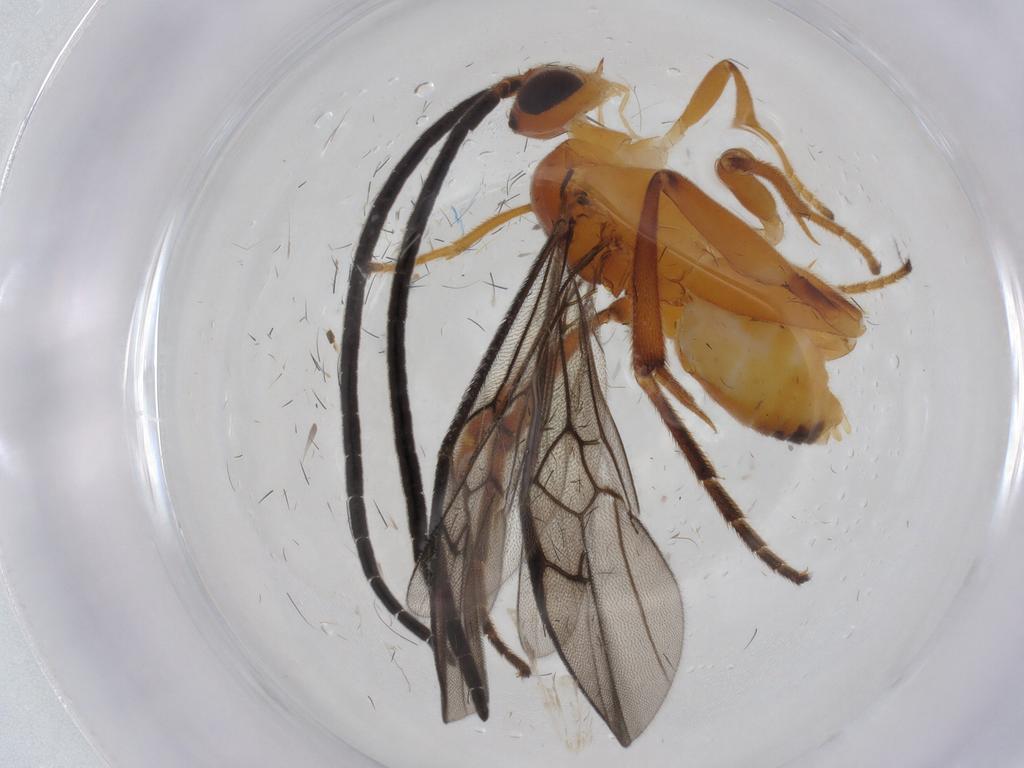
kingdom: Animalia
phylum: Arthropoda
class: Insecta
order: Hymenoptera
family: Braconidae
